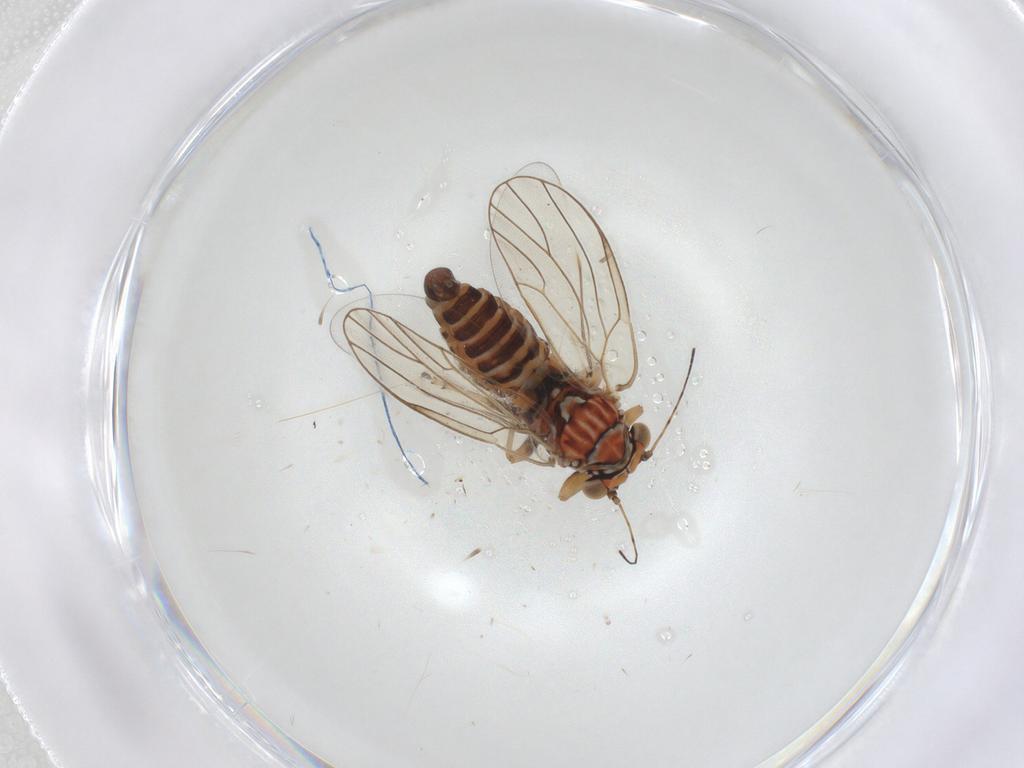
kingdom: Animalia
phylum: Arthropoda
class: Insecta
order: Hemiptera
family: Psyllidae
